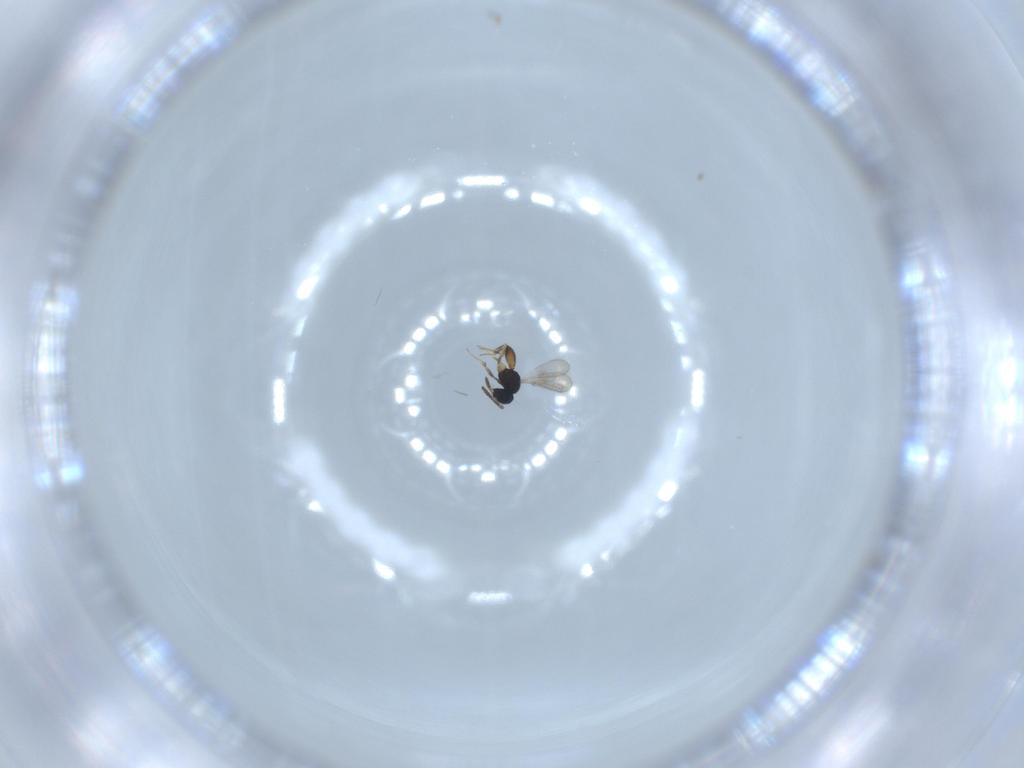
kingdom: Animalia
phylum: Arthropoda
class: Insecta
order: Hymenoptera
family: Scelionidae
